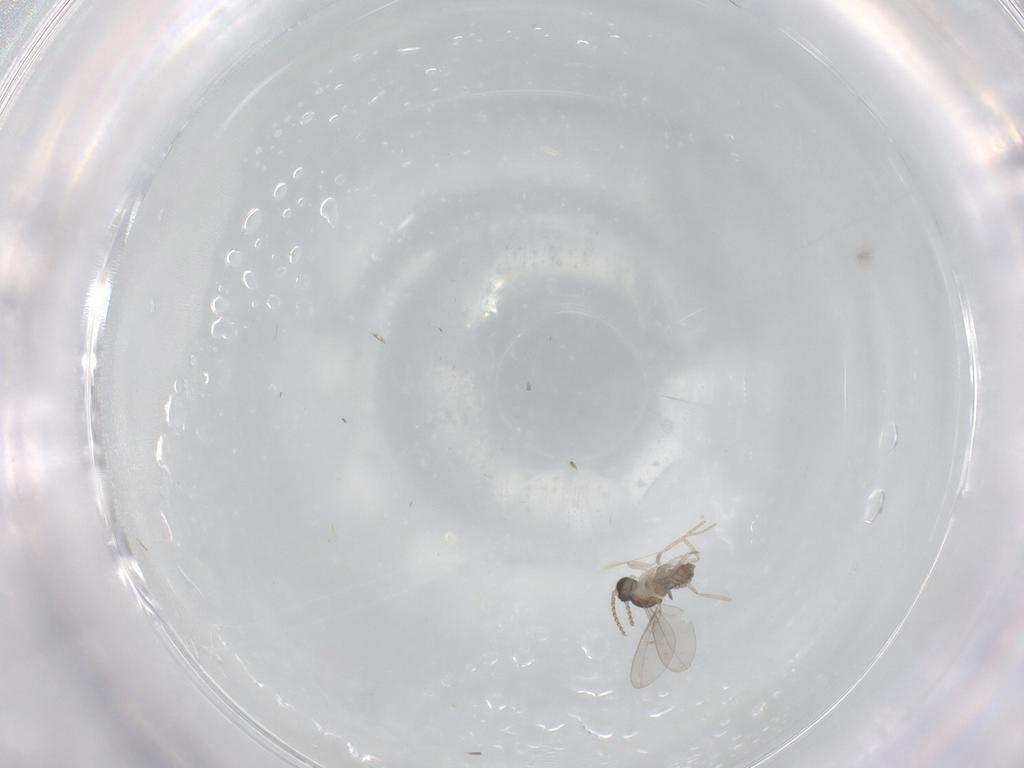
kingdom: Animalia
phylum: Arthropoda
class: Insecta
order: Diptera
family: Cecidomyiidae
